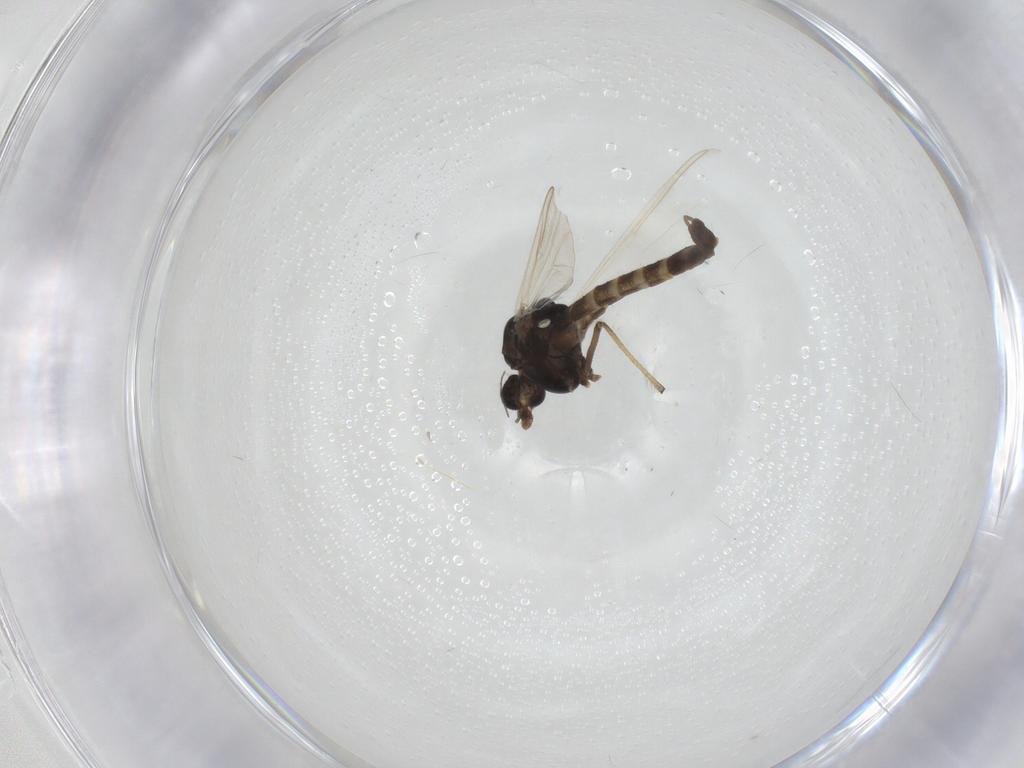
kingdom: Animalia
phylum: Arthropoda
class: Insecta
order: Diptera
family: Chironomidae
